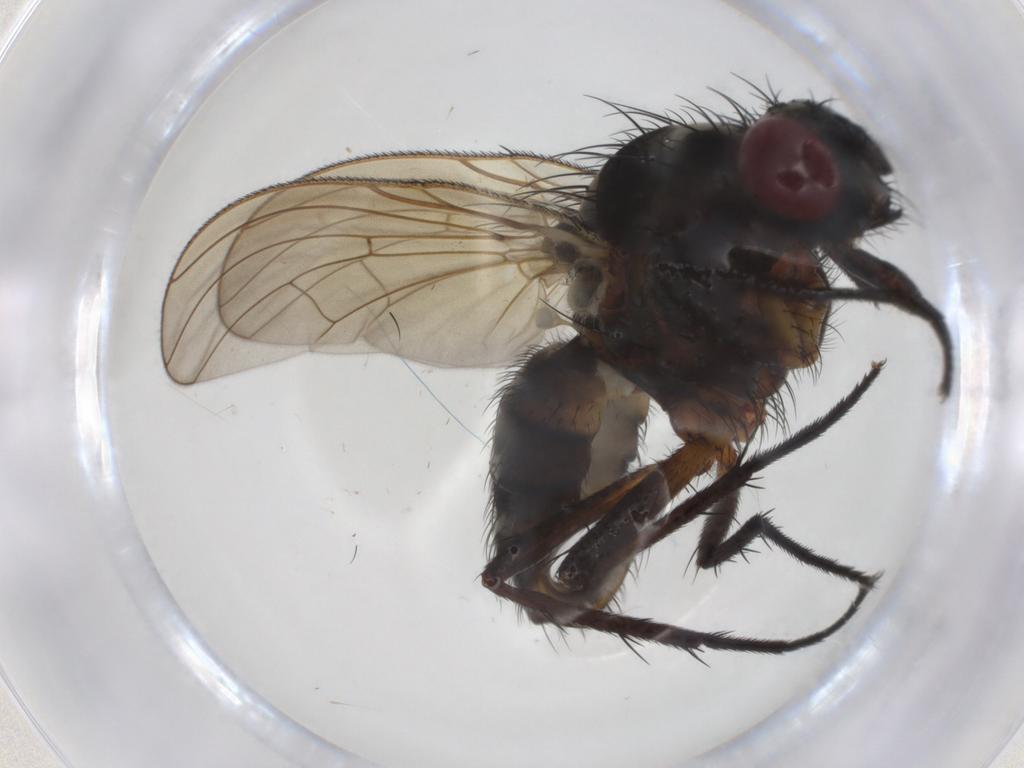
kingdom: Animalia
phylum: Arthropoda
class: Insecta
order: Diptera
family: Anthomyiidae
